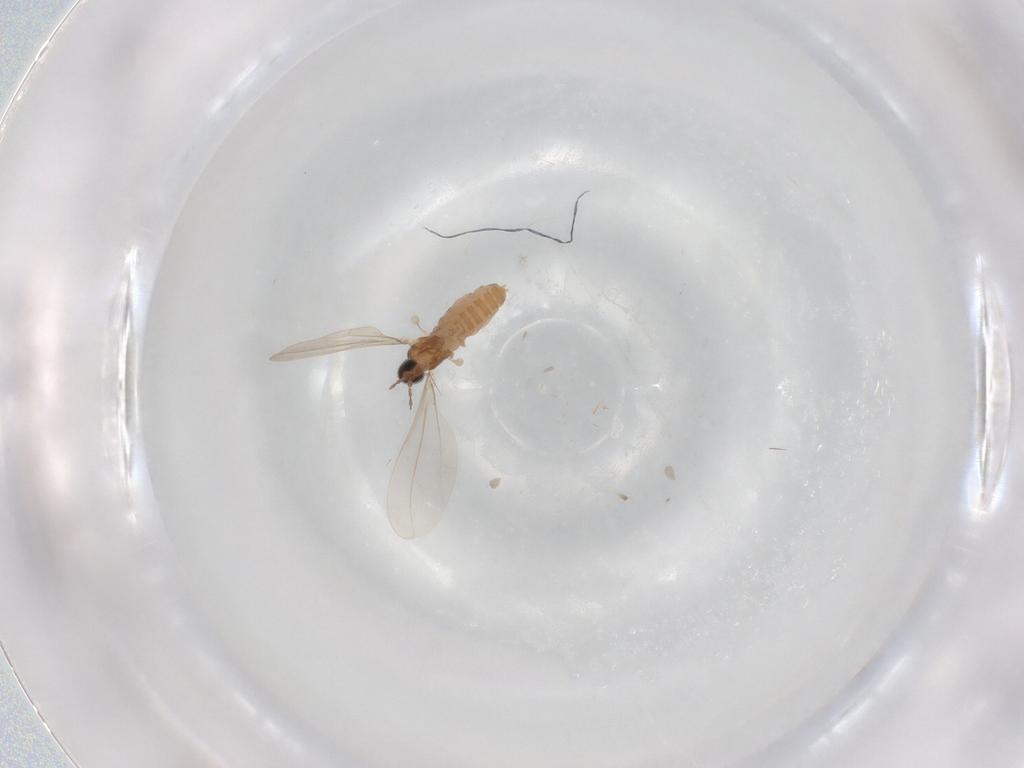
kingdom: Animalia
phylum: Arthropoda
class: Insecta
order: Diptera
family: Cecidomyiidae
